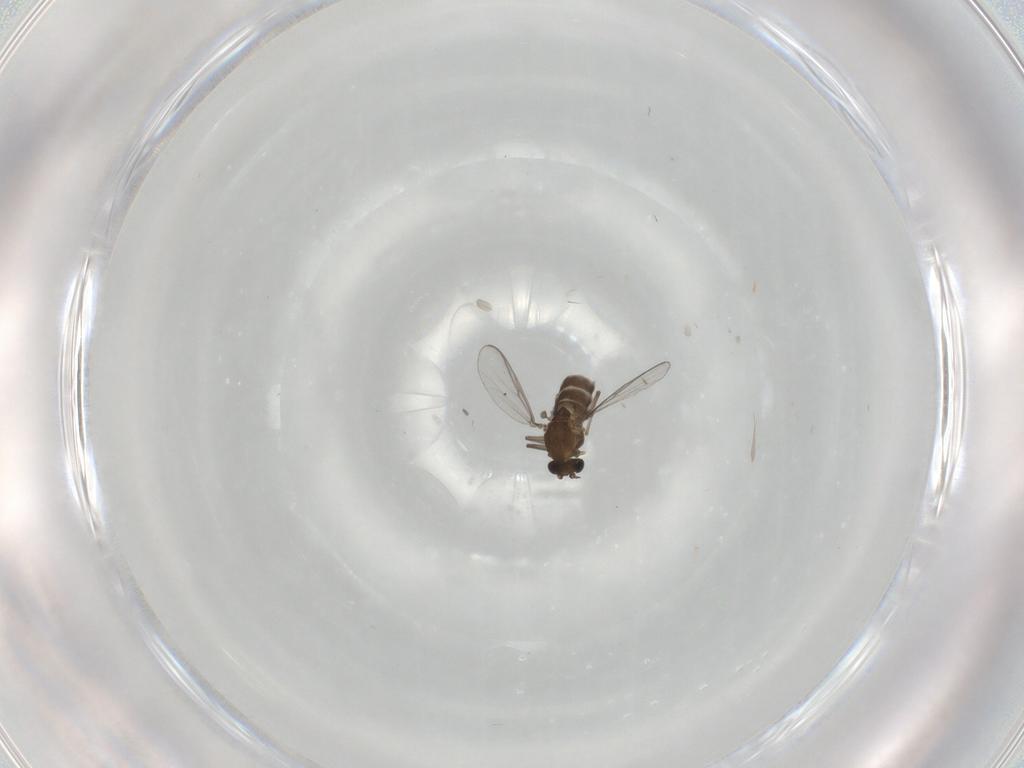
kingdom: Animalia
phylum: Arthropoda
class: Insecta
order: Diptera
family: Chironomidae
